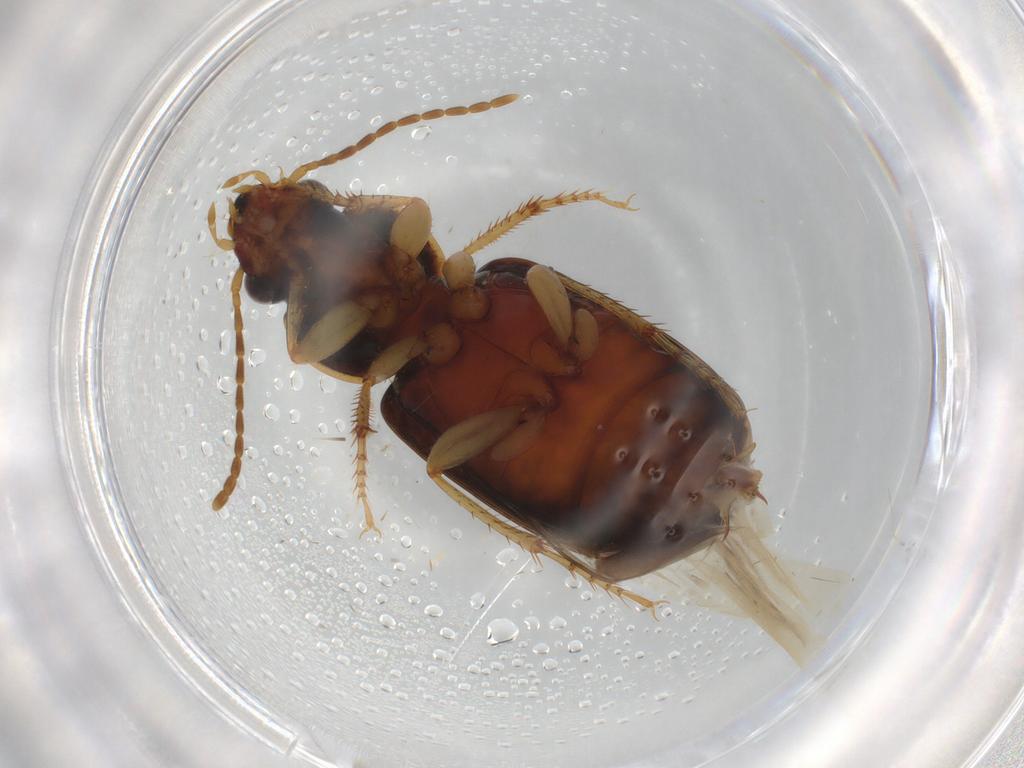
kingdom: Animalia
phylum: Arthropoda
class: Insecta
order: Coleoptera
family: Carabidae
